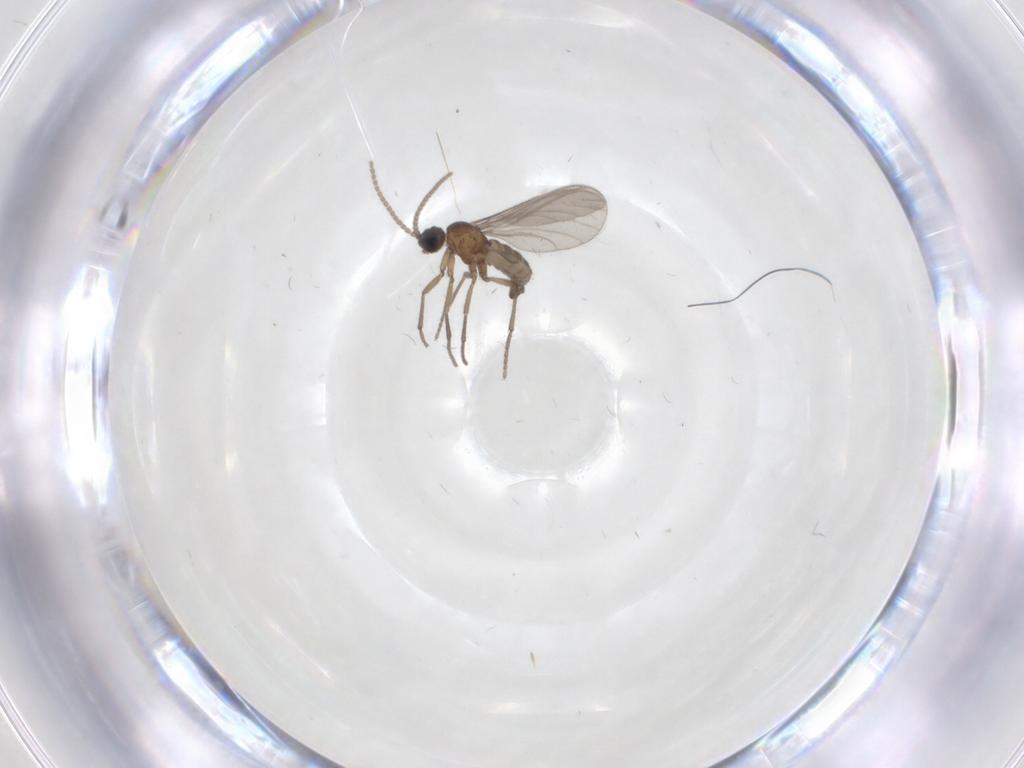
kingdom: Animalia
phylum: Arthropoda
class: Insecta
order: Diptera
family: Sciaridae
